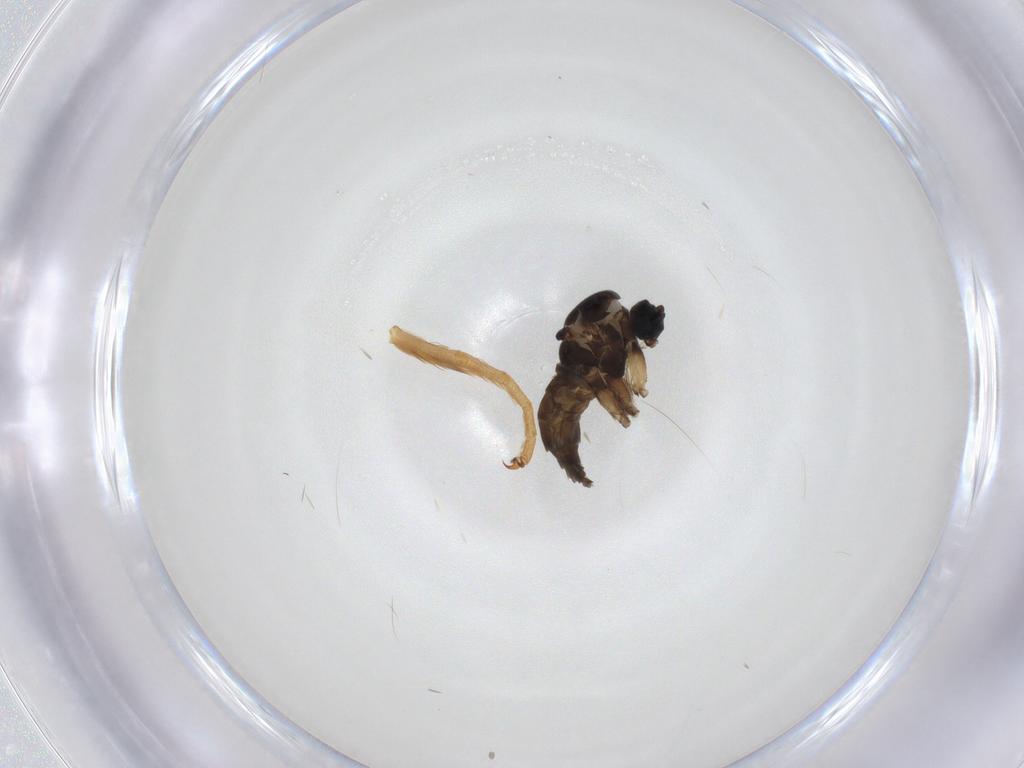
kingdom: Animalia
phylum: Arthropoda
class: Insecta
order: Diptera
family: Sciaridae
